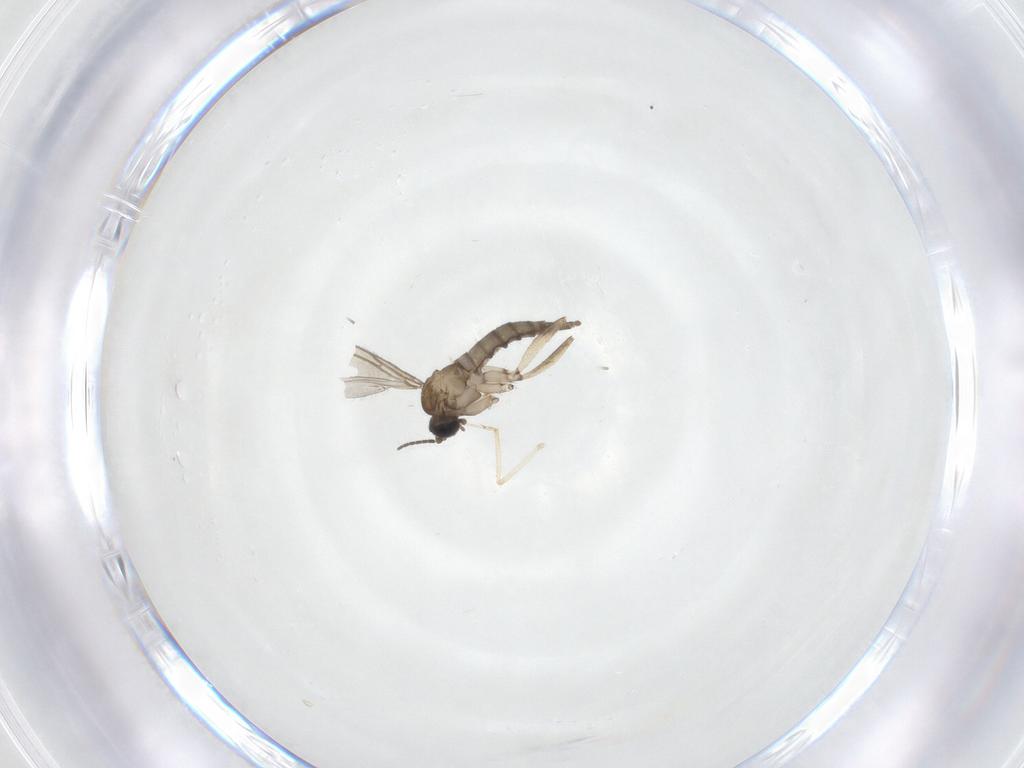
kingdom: Animalia
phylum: Arthropoda
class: Insecta
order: Diptera
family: Sciaridae
